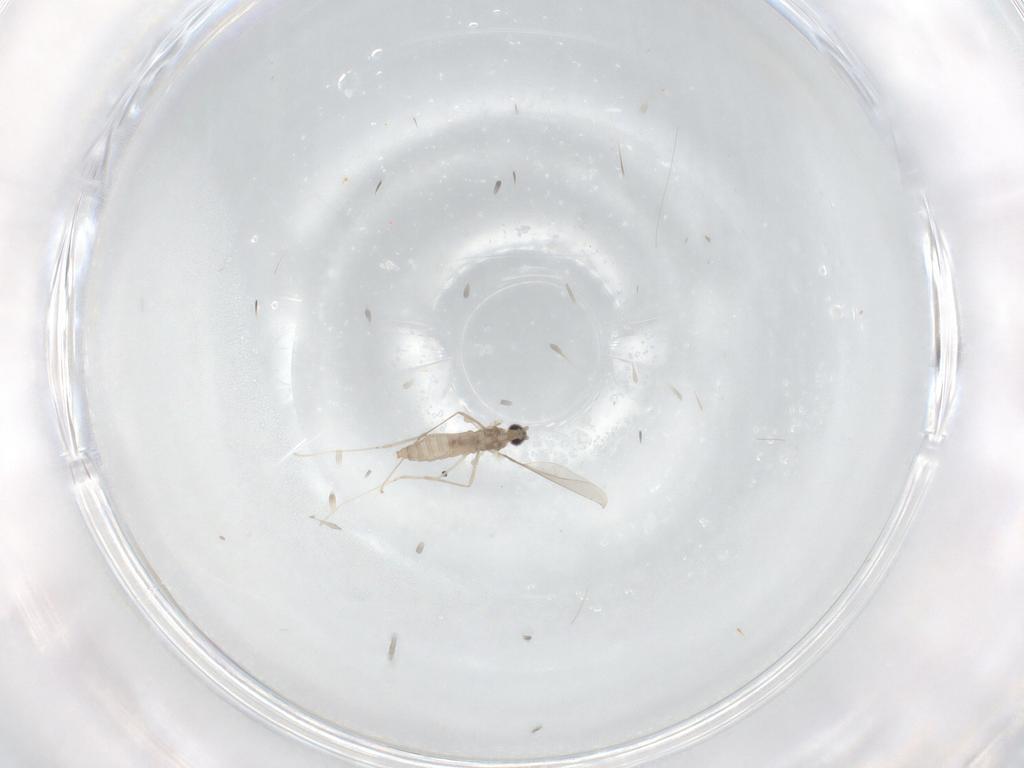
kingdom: Animalia
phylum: Arthropoda
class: Insecta
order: Diptera
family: Cecidomyiidae
